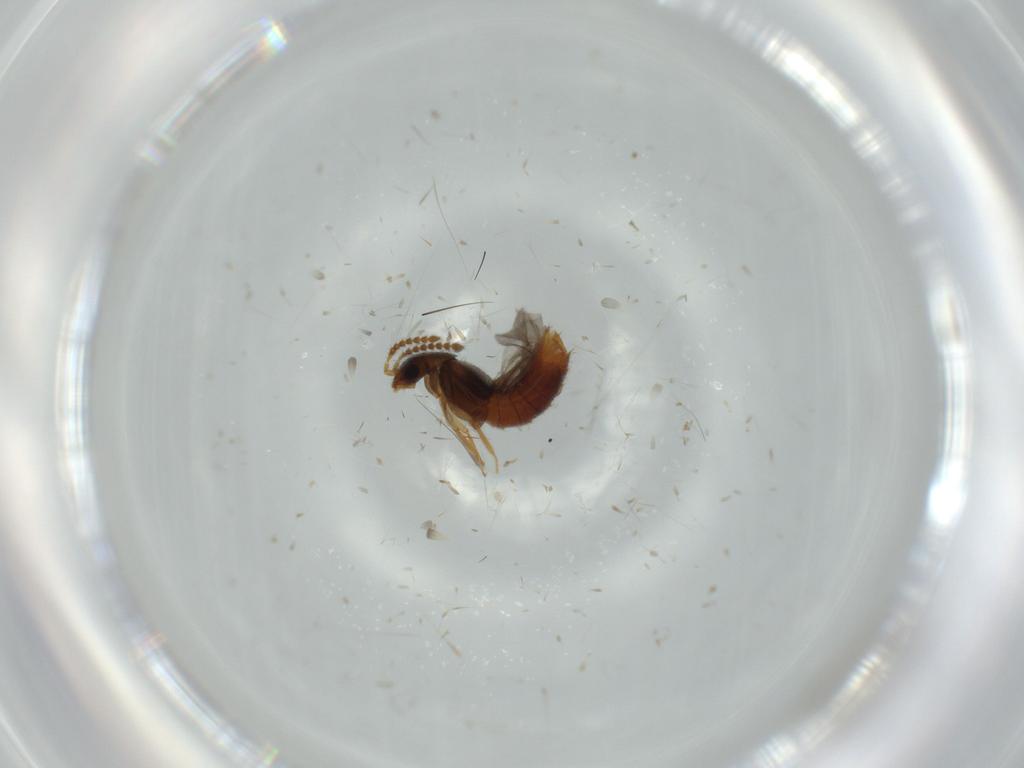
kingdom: Animalia
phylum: Arthropoda
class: Insecta
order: Coleoptera
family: Staphylinidae
